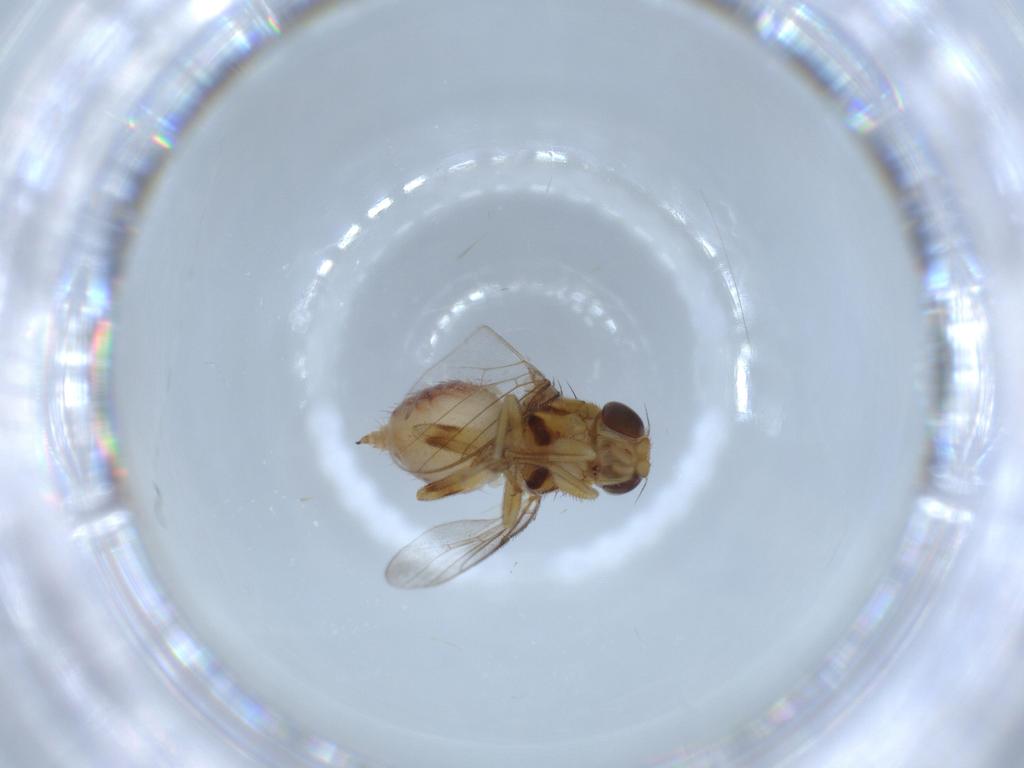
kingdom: Animalia
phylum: Arthropoda
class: Insecta
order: Diptera
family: Chloropidae
